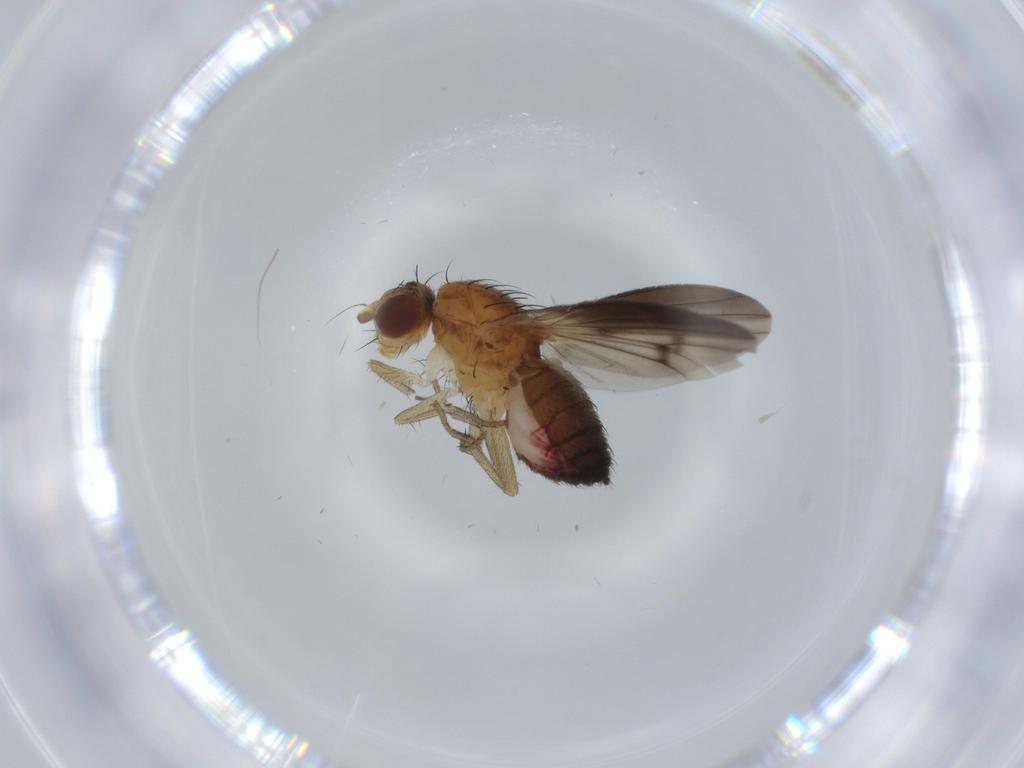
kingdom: Animalia
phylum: Arthropoda
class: Insecta
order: Diptera
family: Heleomyzidae
